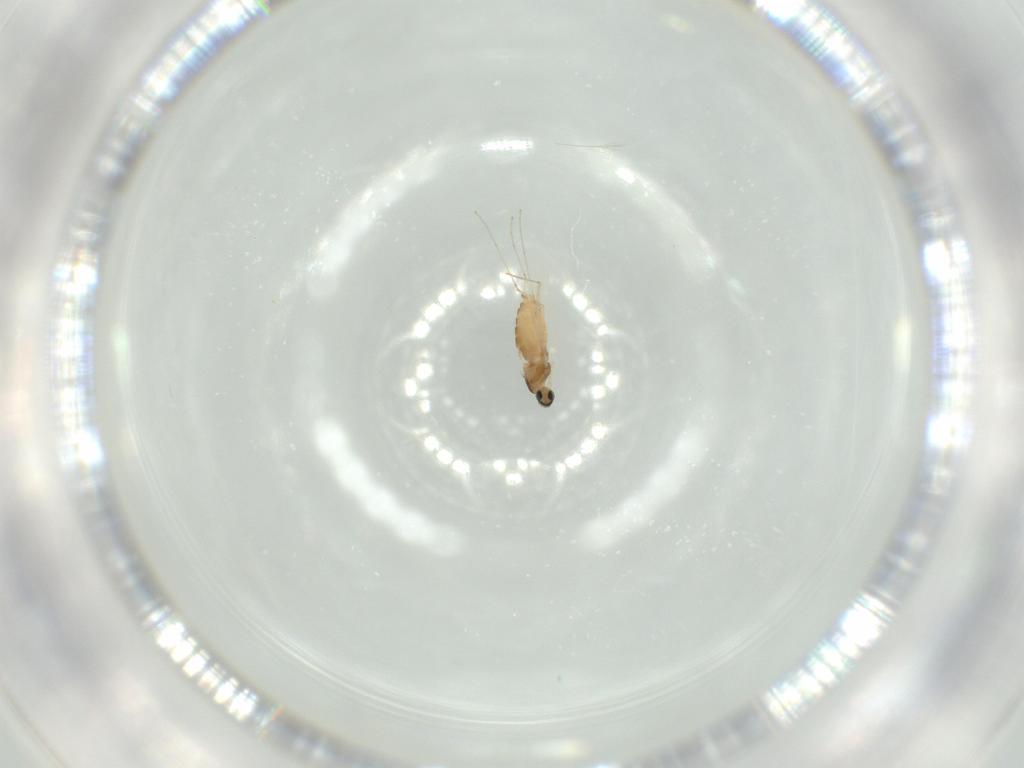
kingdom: Animalia
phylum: Arthropoda
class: Insecta
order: Diptera
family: Cecidomyiidae
